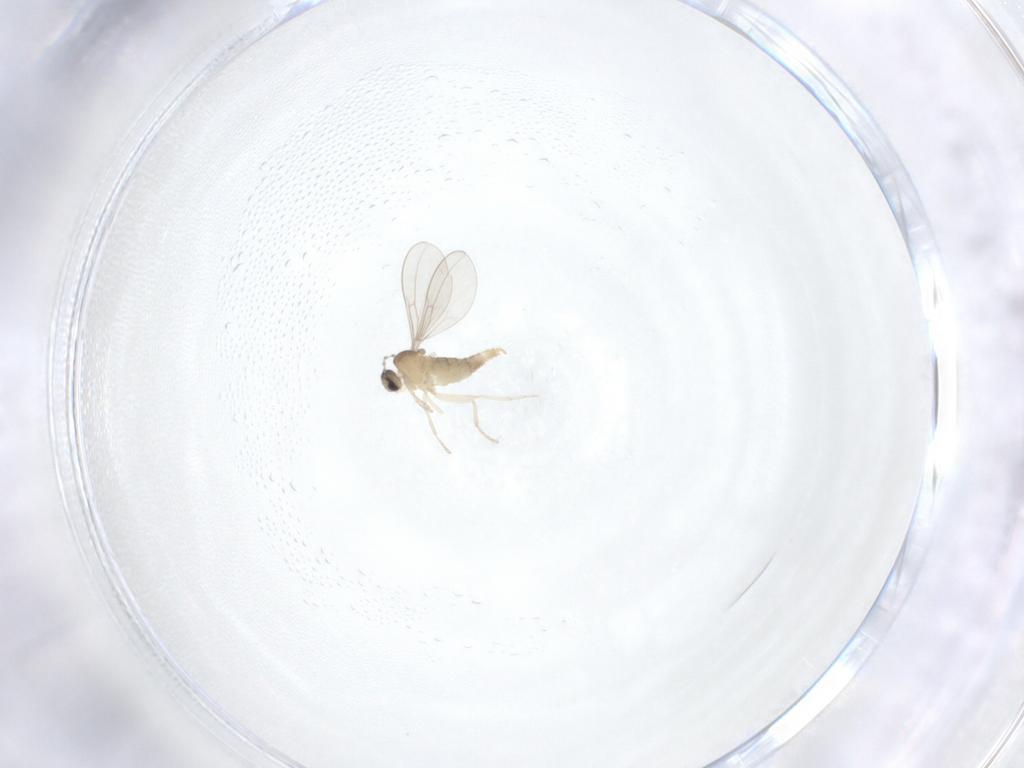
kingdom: Animalia
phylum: Arthropoda
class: Insecta
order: Diptera
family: Cecidomyiidae
